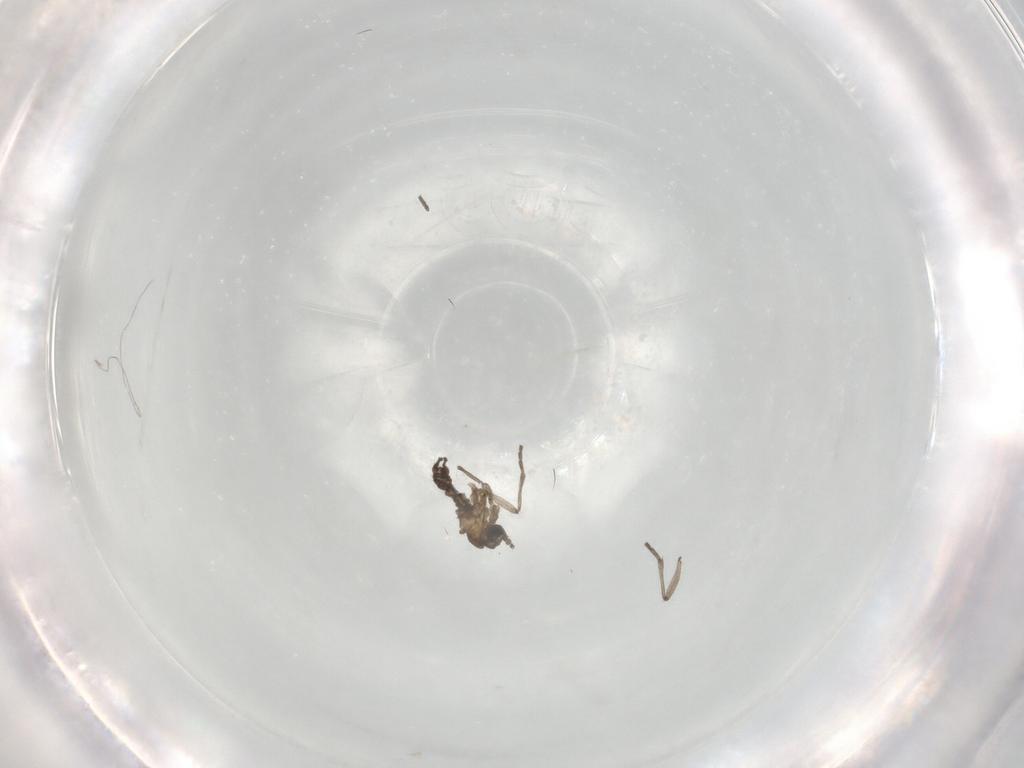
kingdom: Animalia
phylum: Arthropoda
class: Insecta
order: Diptera
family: Sciaridae
